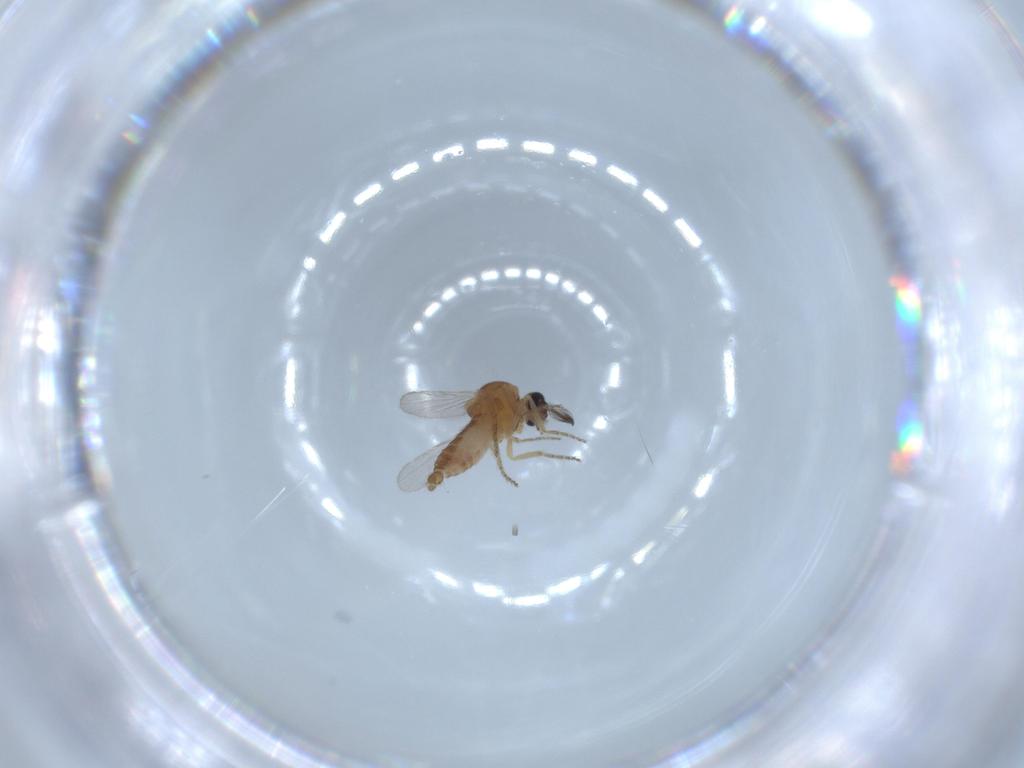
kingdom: Animalia
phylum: Arthropoda
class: Insecta
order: Diptera
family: Ceratopogonidae
